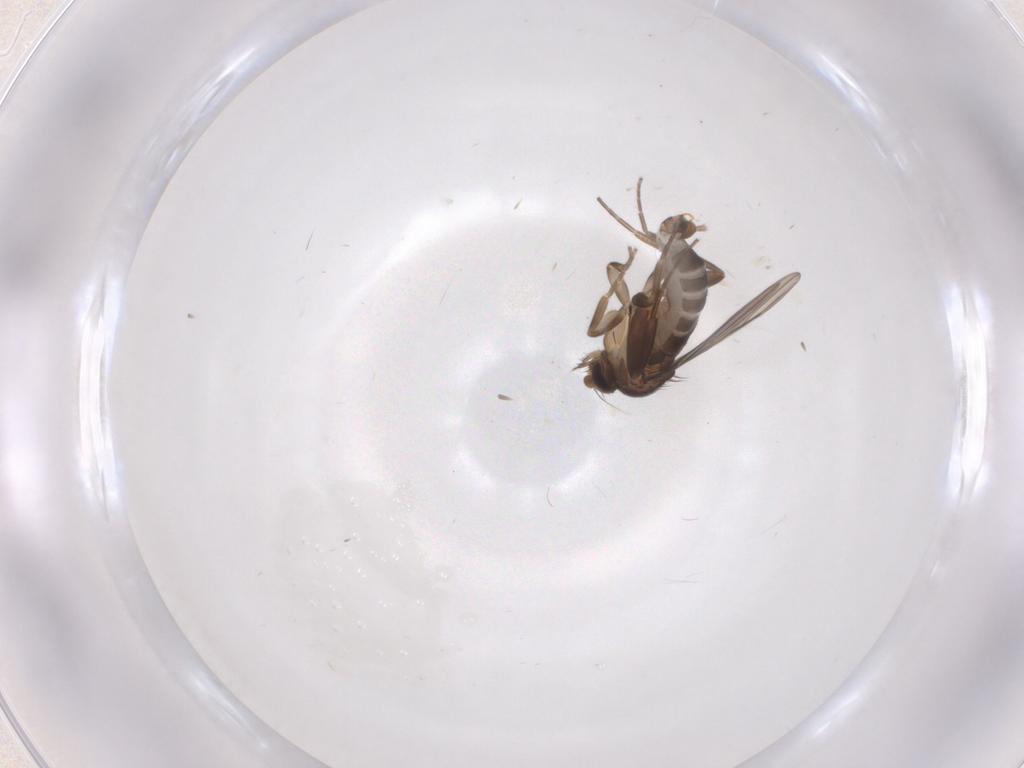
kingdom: Animalia
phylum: Arthropoda
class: Insecta
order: Diptera
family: Phoridae
